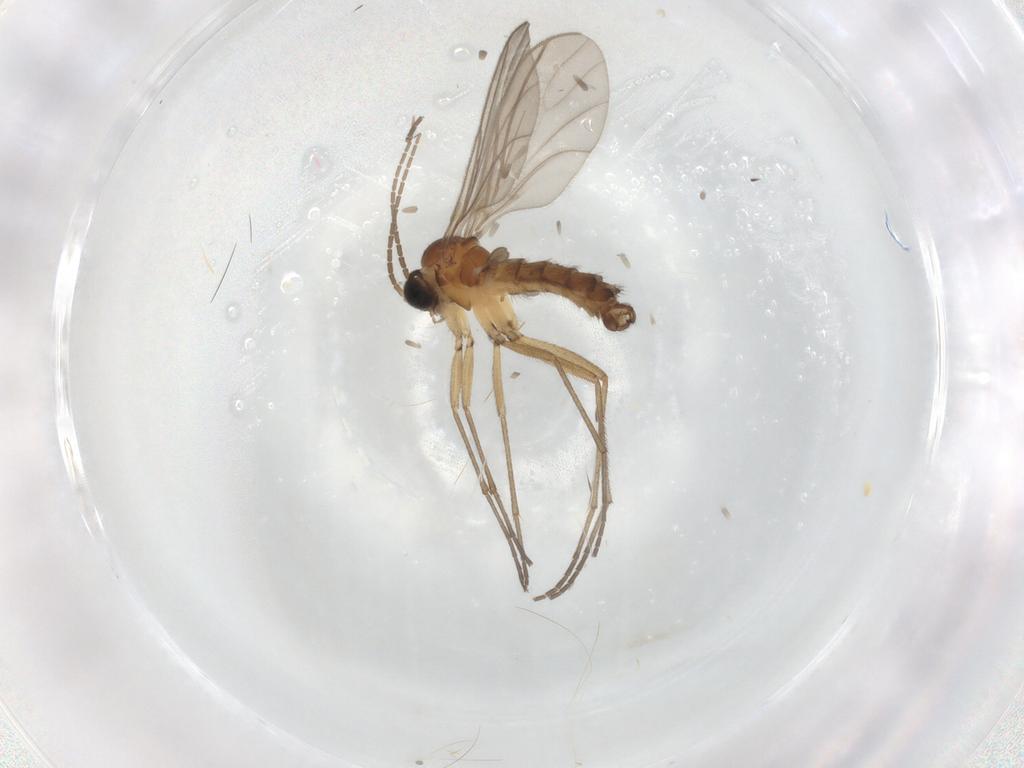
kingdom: Animalia
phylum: Arthropoda
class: Insecta
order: Diptera
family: Sciaridae
